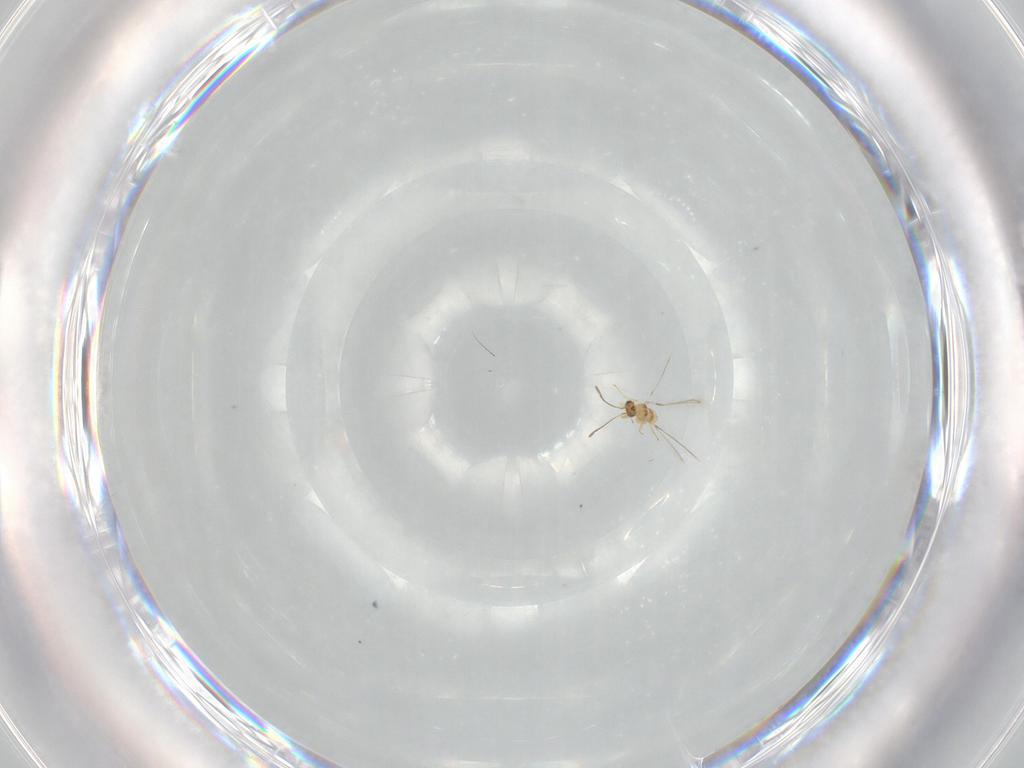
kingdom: Animalia
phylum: Arthropoda
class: Insecta
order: Hymenoptera
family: Mymaridae
